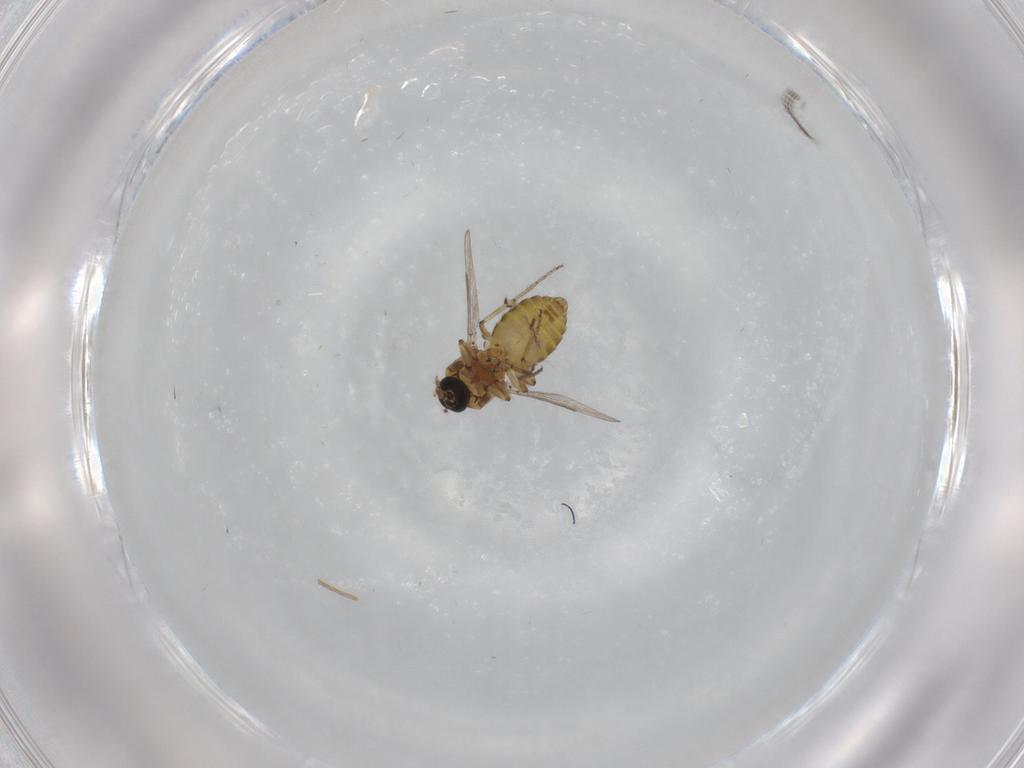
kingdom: Animalia
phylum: Arthropoda
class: Insecta
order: Diptera
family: Ceratopogonidae
